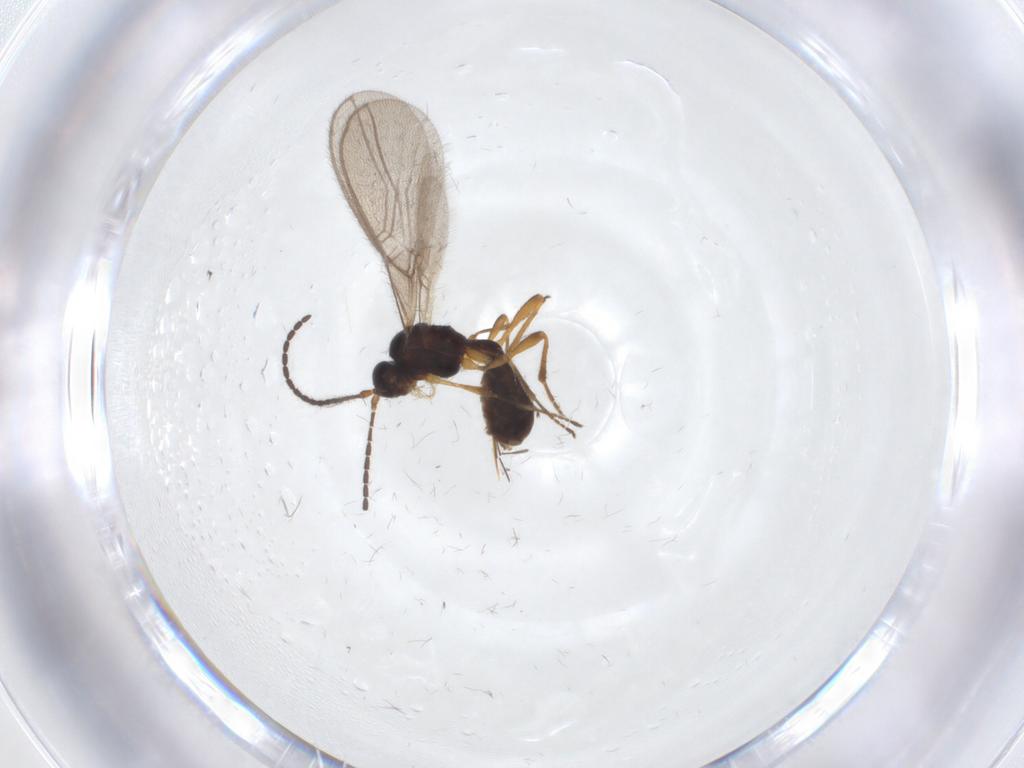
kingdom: Animalia
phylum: Arthropoda
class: Insecta
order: Hymenoptera
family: Braconidae
